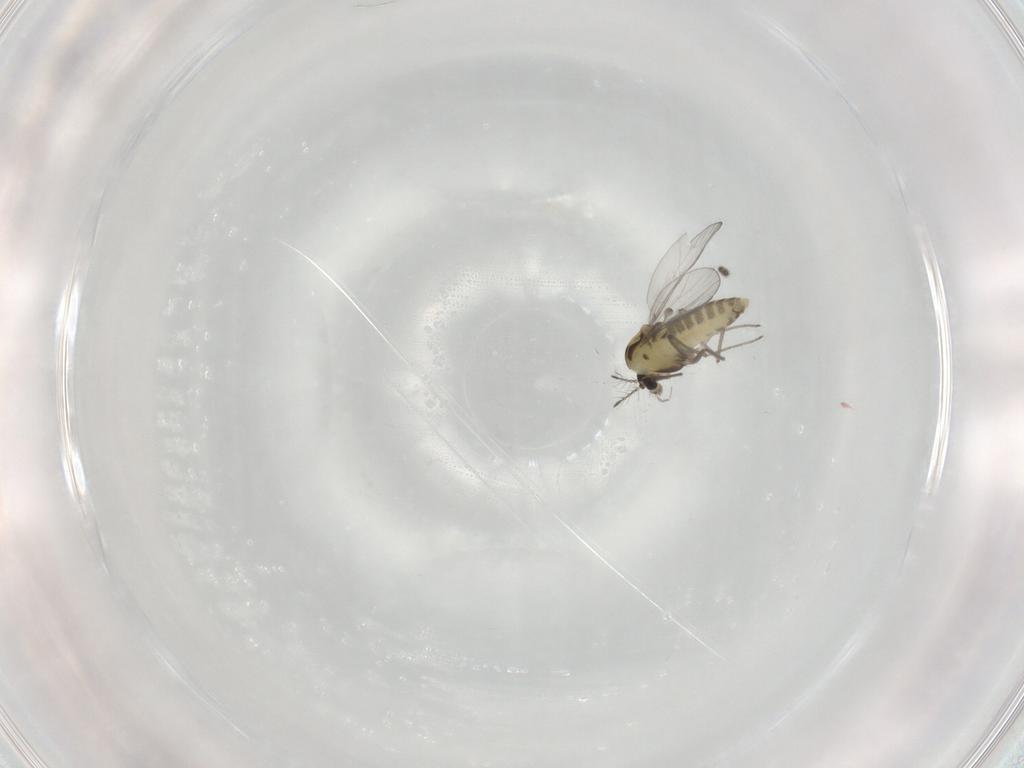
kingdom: Animalia
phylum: Arthropoda
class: Insecta
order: Diptera
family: Chironomidae
